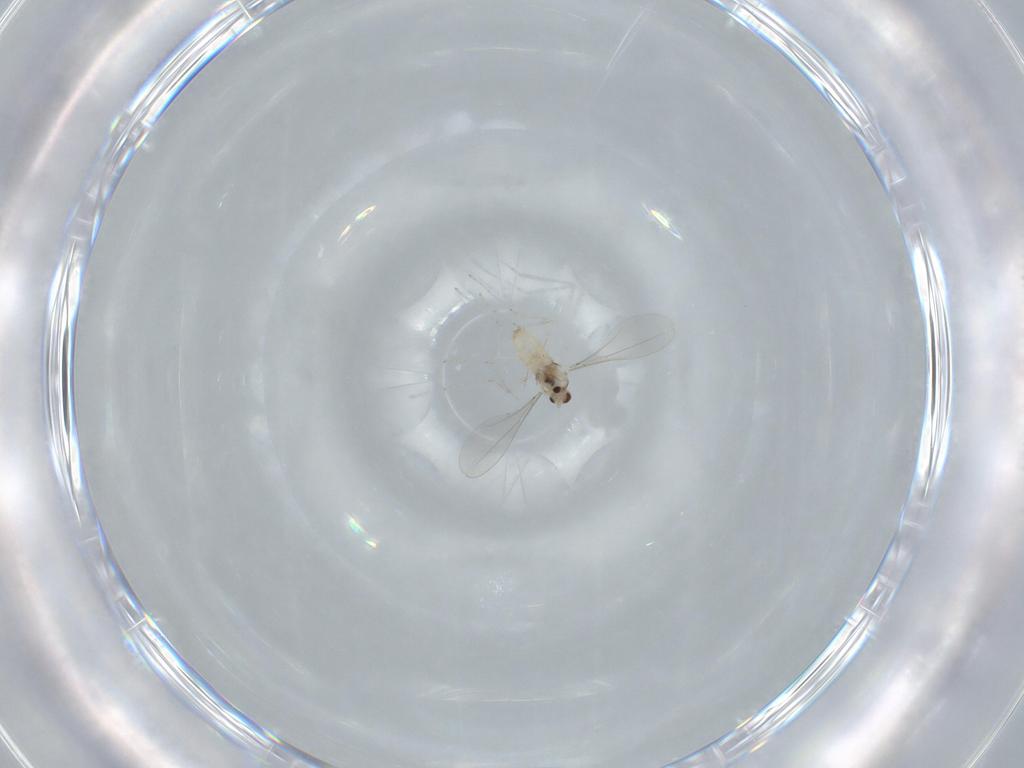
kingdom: Animalia
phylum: Arthropoda
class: Insecta
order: Diptera
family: Cecidomyiidae
